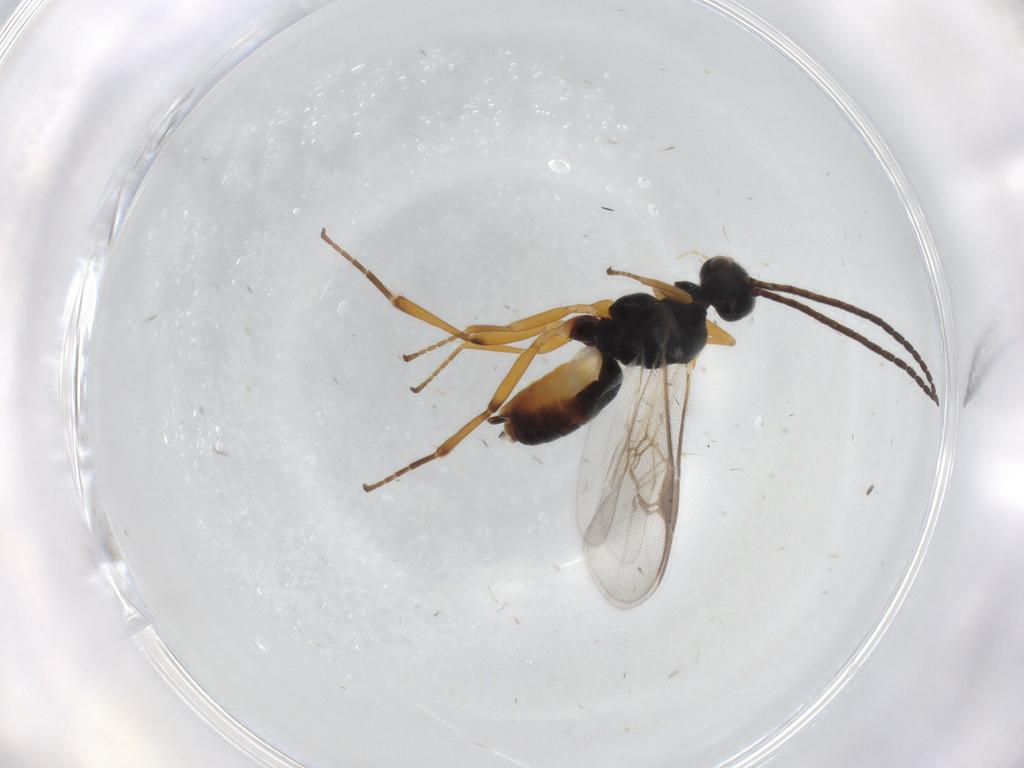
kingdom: Animalia
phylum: Arthropoda
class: Insecta
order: Hymenoptera
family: Braconidae
